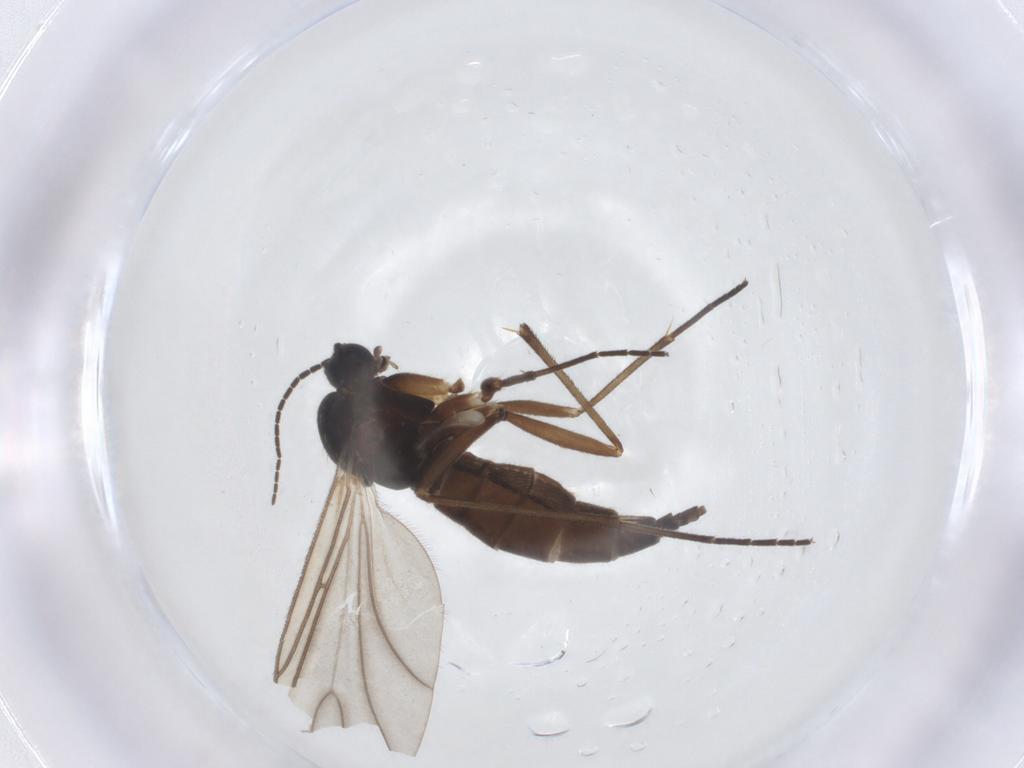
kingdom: Animalia
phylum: Arthropoda
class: Insecta
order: Diptera
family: Sciaridae
